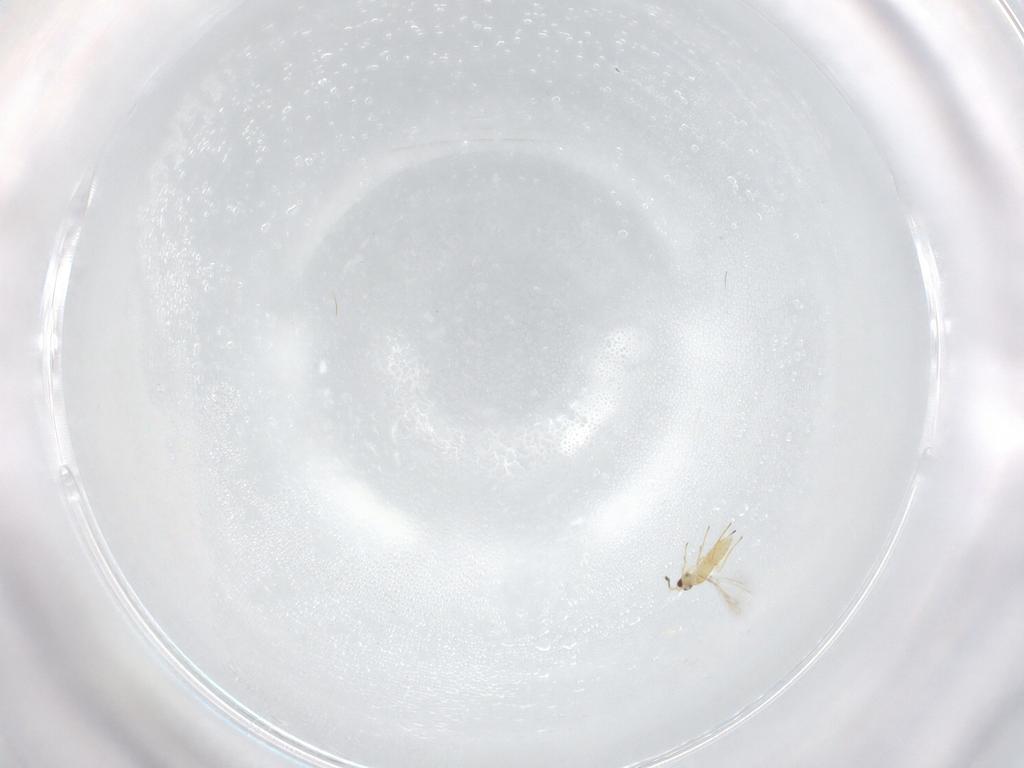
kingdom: Animalia
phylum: Arthropoda
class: Insecta
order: Hymenoptera
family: Mymaridae
